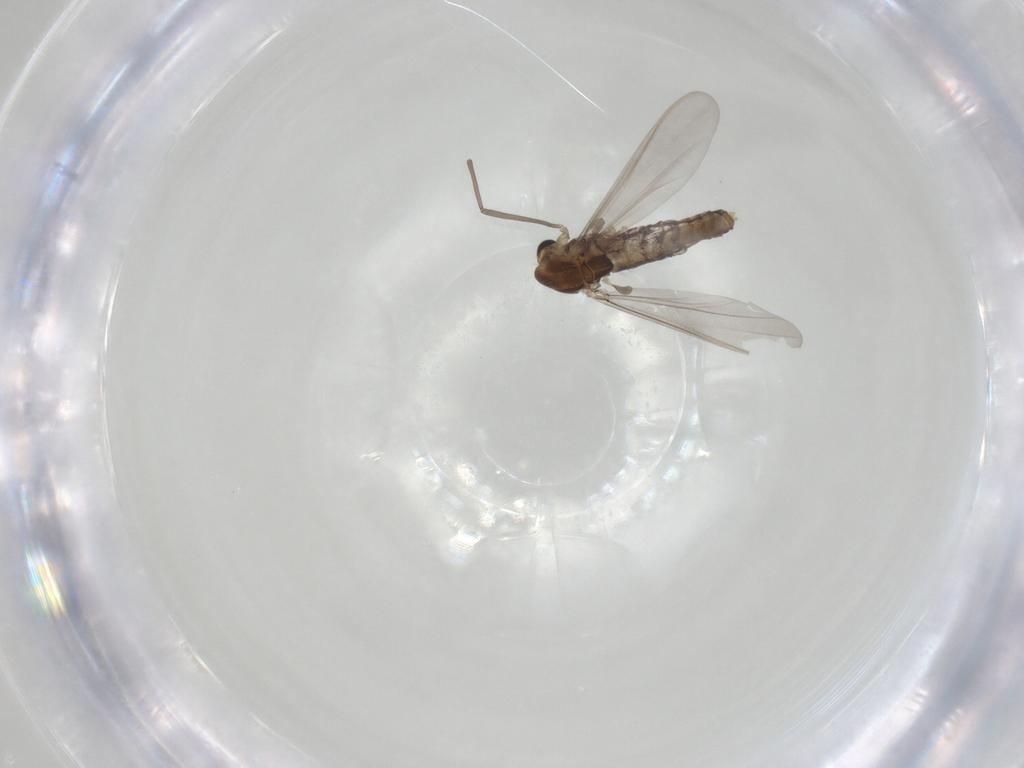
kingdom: Animalia
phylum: Arthropoda
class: Insecta
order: Diptera
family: Chironomidae
